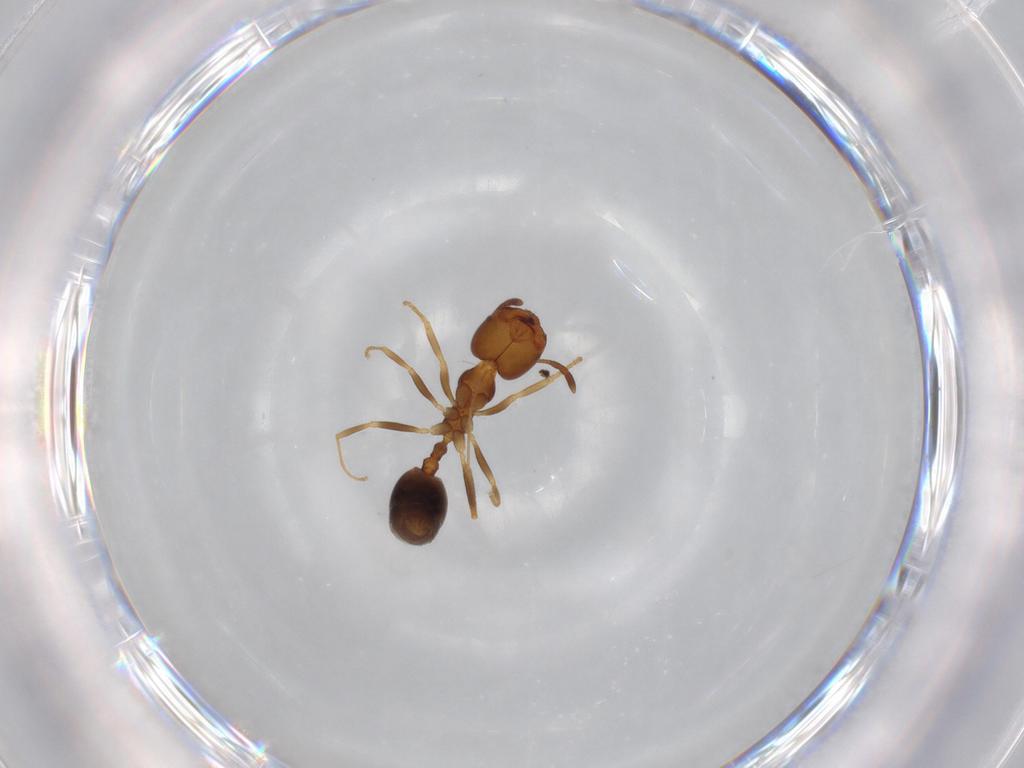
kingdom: Animalia
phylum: Arthropoda
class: Insecta
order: Hymenoptera
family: Formicidae
